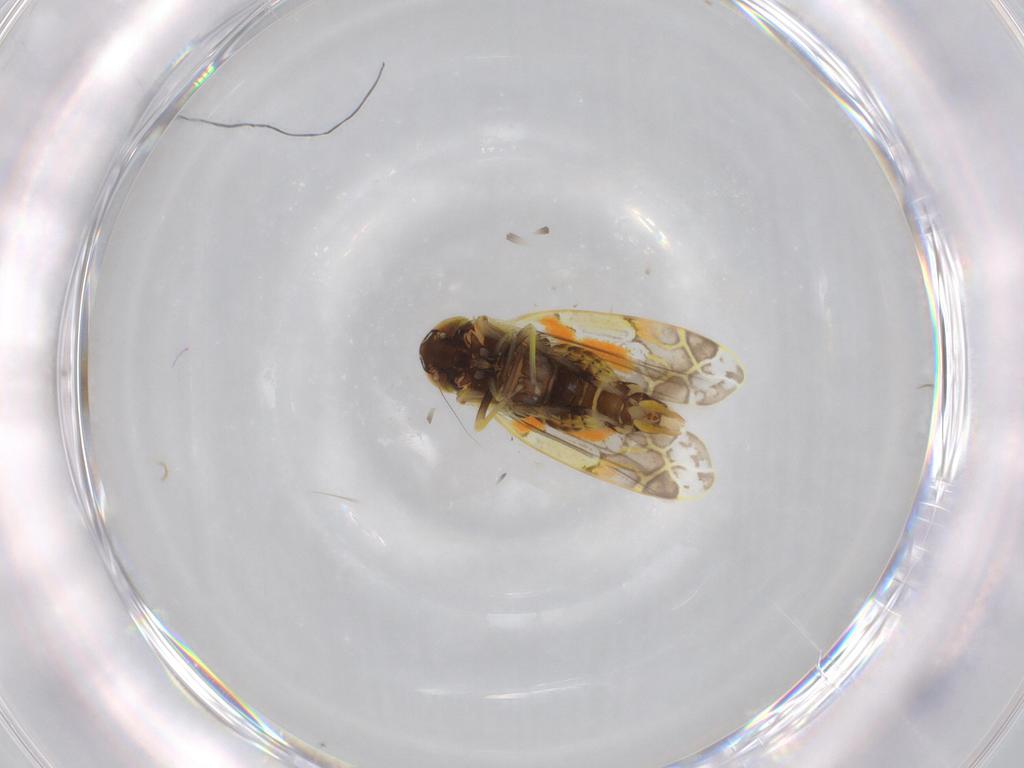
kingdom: Animalia
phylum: Arthropoda
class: Insecta
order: Hemiptera
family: Cicadellidae
